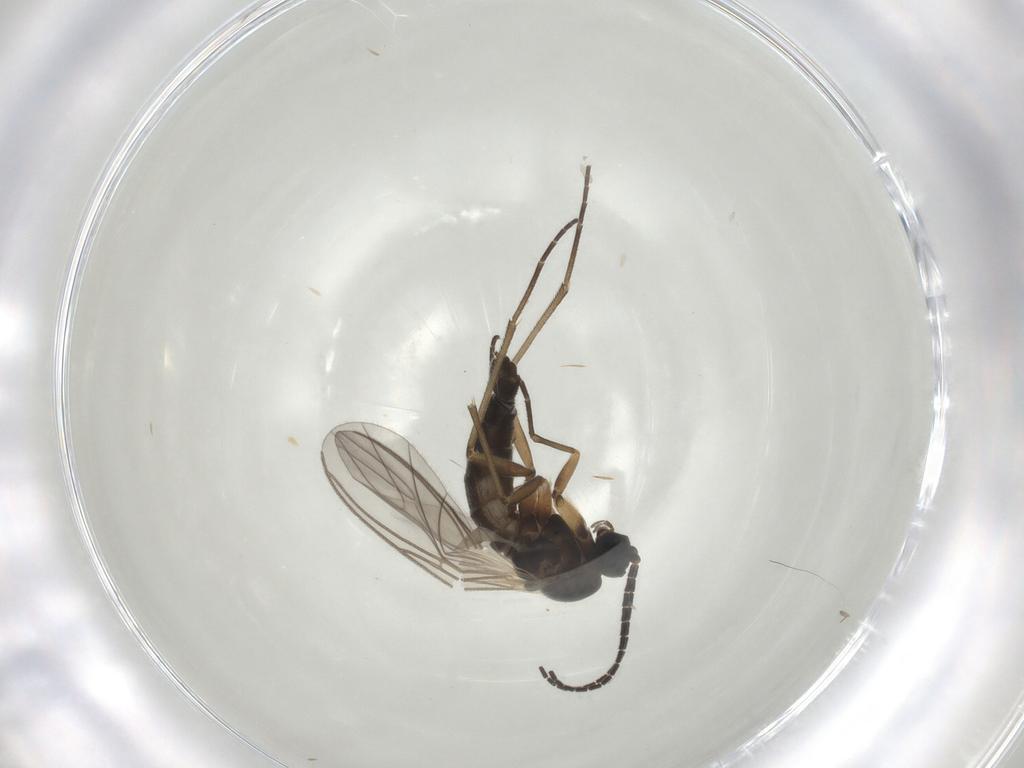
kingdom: Animalia
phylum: Arthropoda
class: Insecta
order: Diptera
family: Sciaridae
